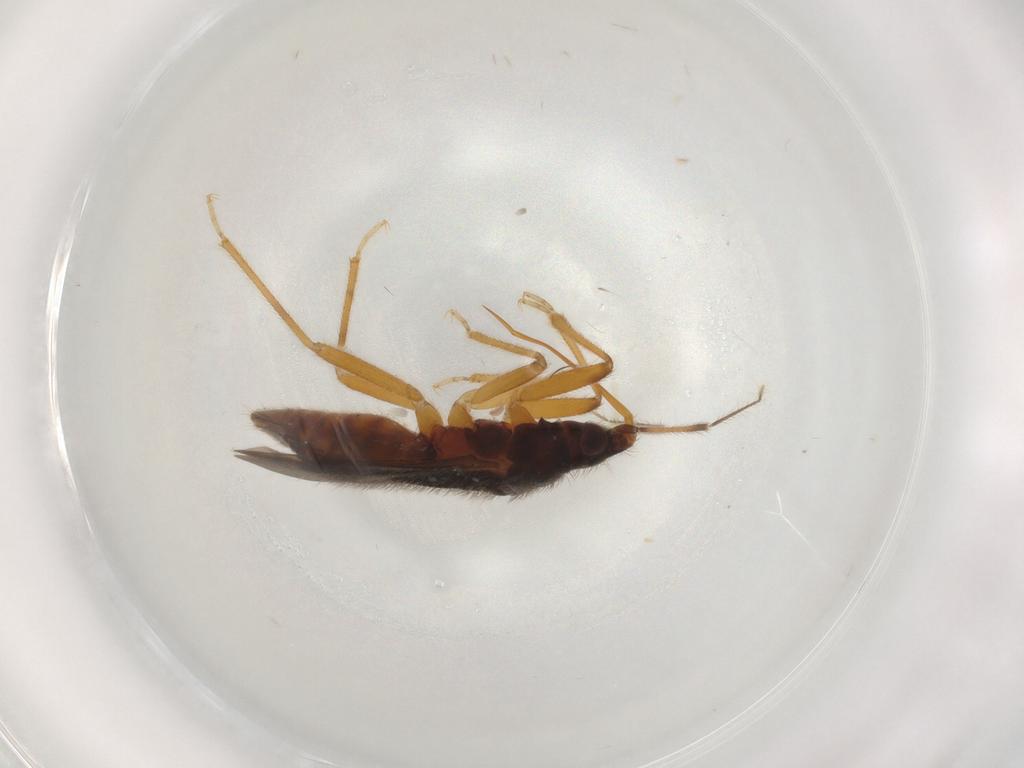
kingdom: Animalia
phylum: Arthropoda
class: Insecta
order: Hemiptera
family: Anthocoridae
